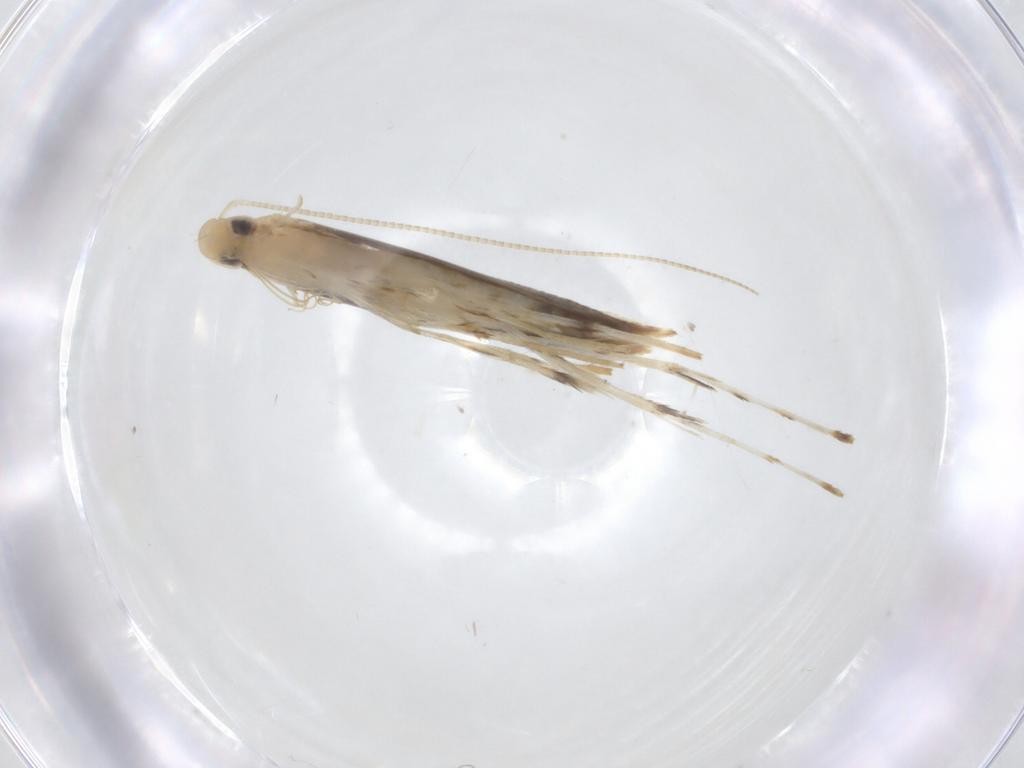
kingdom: Animalia
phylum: Arthropoda
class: Insecta
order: Lepidoptera
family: Gracillariidae
